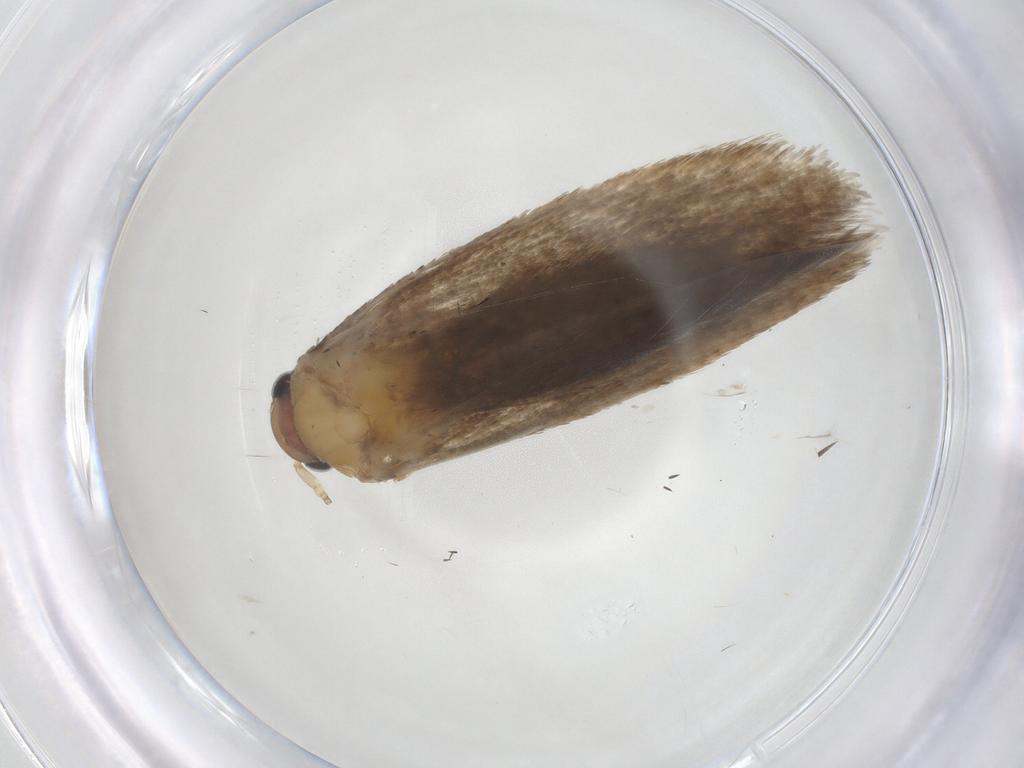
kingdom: Animalia
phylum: Arthropoda
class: Insecta
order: Lepidoptera
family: Tineidae
